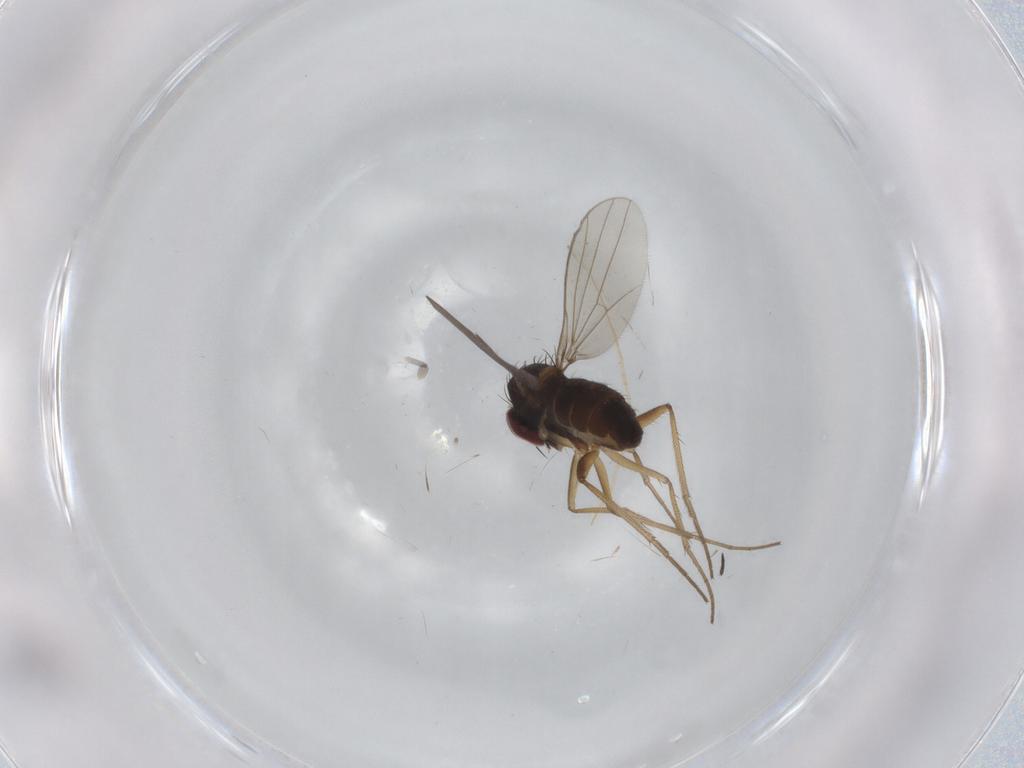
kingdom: Animalia
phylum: Arthropoda
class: Insecta
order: Diptera
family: Dolichopodidae
